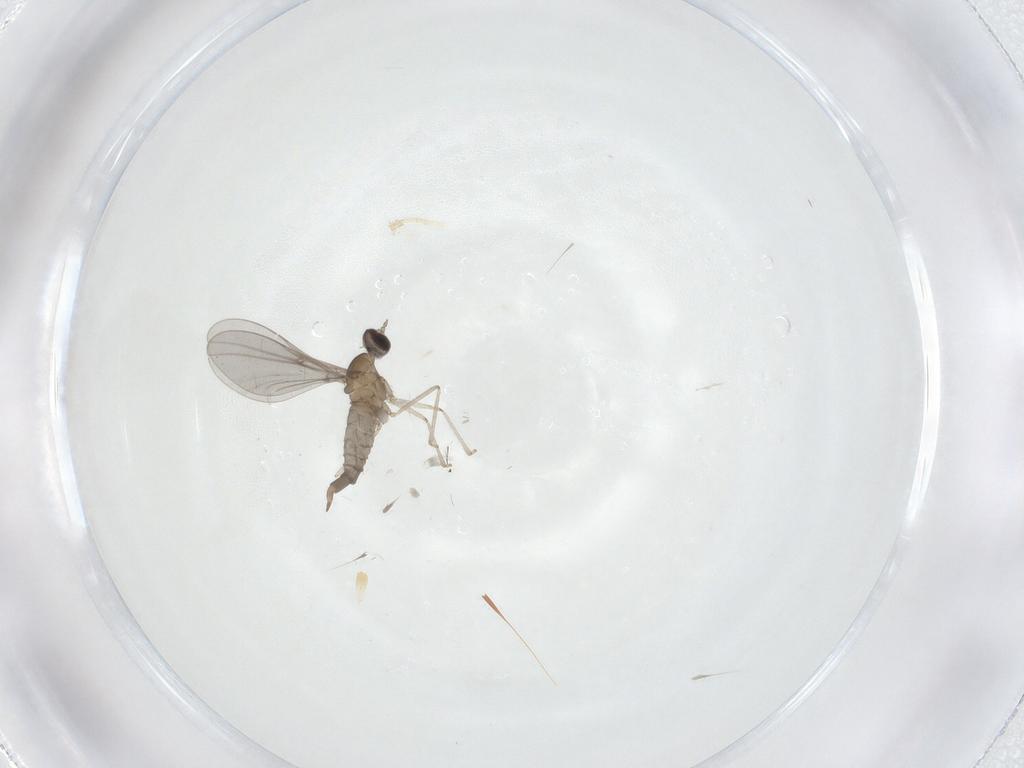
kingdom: Animalia
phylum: Arthropoda
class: Insecta
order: Diptera
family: Cecidomyiidae
